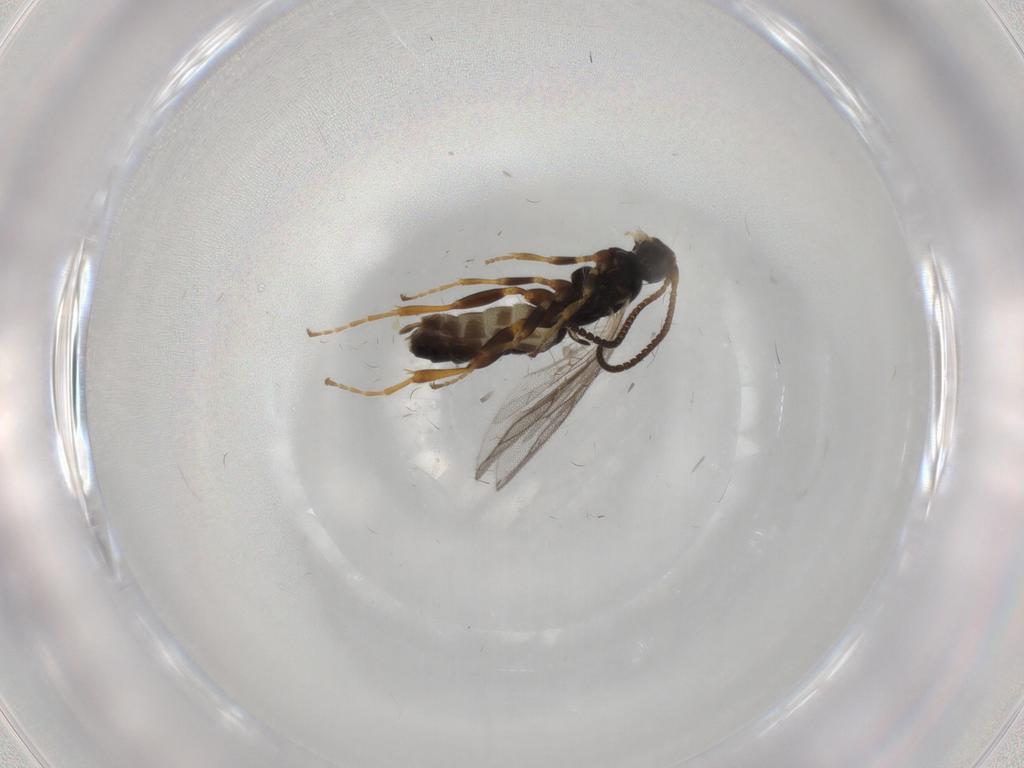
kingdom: Animalia
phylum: Arthropoda
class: Insecta
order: Hymenoptera
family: Ichneumonidae
